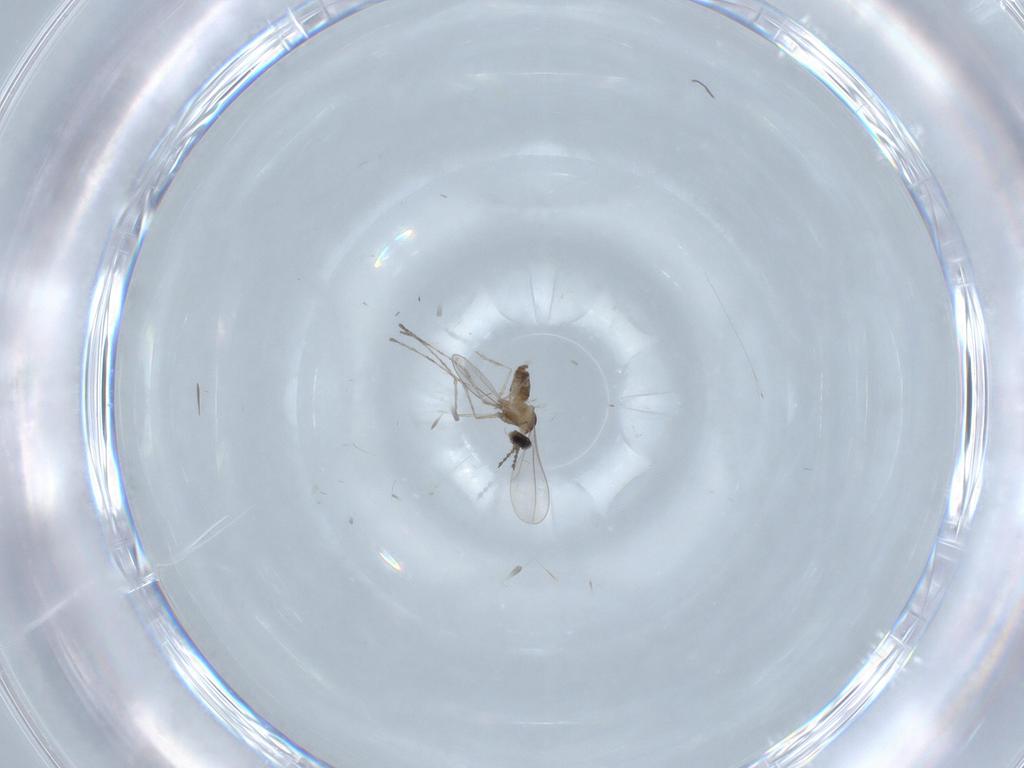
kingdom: Animalia
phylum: Arthropoda
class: Insecta
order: Diptera
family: Cecidomyiidae
